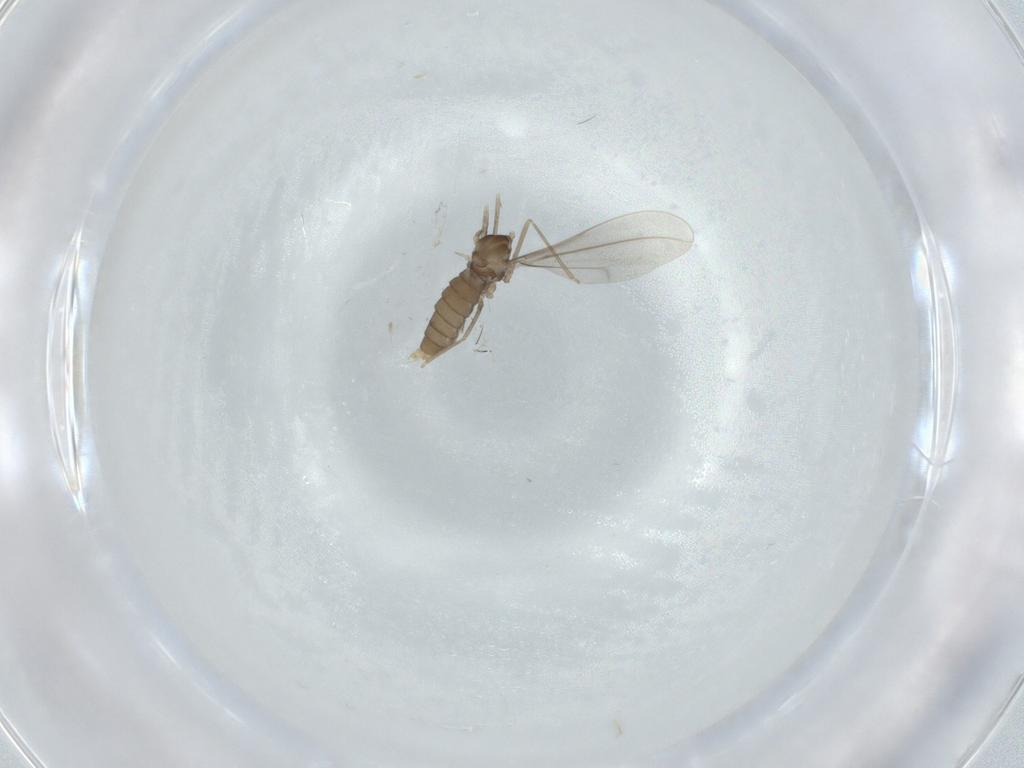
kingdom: Animalia
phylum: Arthropoda
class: Insecta
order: Diptera
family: Cecidomyiidae
